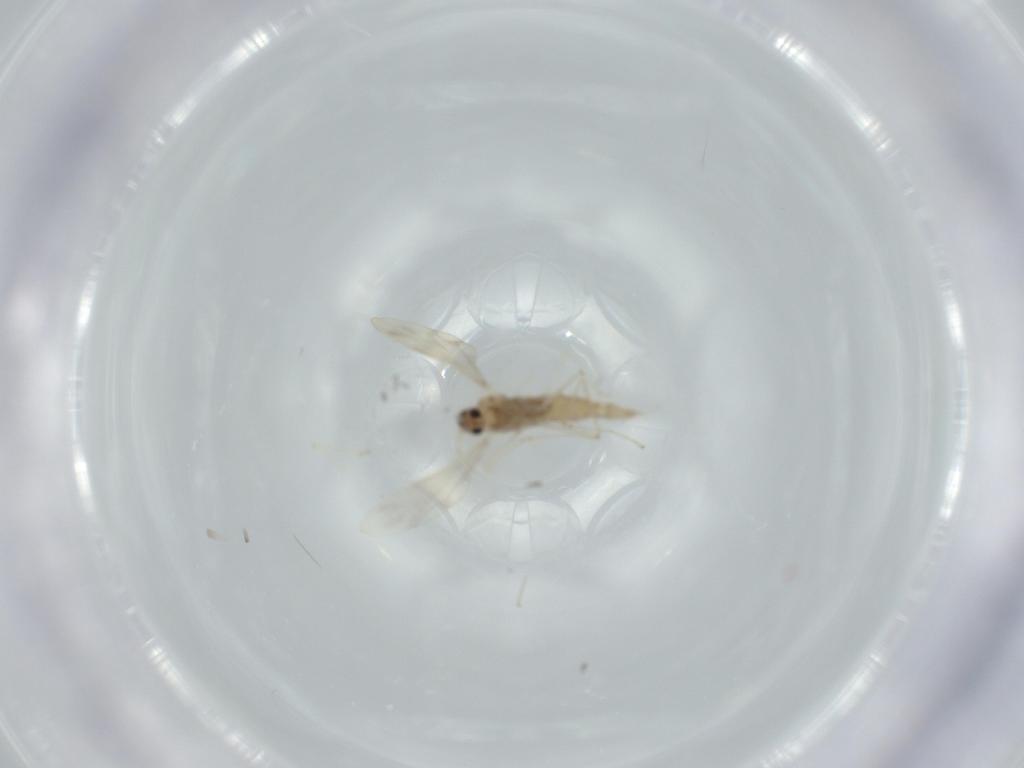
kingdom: Animalia
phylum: Arthropoda
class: Insecta
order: Diptera
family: Cecidomyiidae
